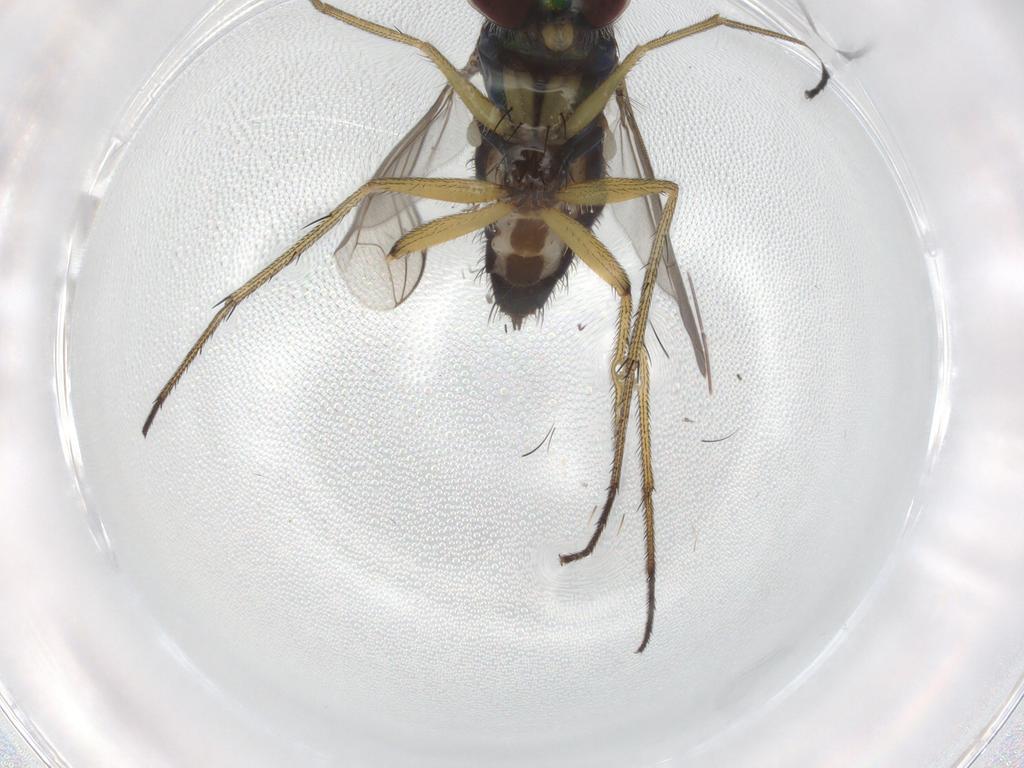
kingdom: Animalia
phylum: Arthropoda
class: Insecta
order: Diptera
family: Dolichopodidae
